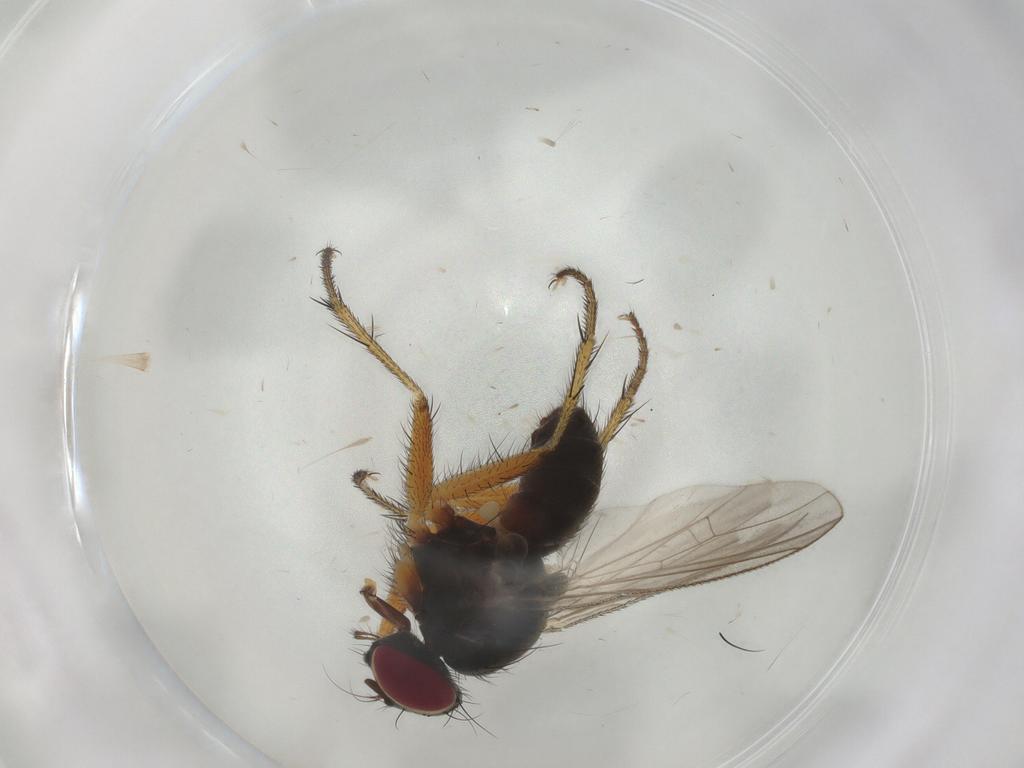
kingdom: Animalia
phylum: Arthropoda
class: Insecta
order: Diptera
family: Muscidae
